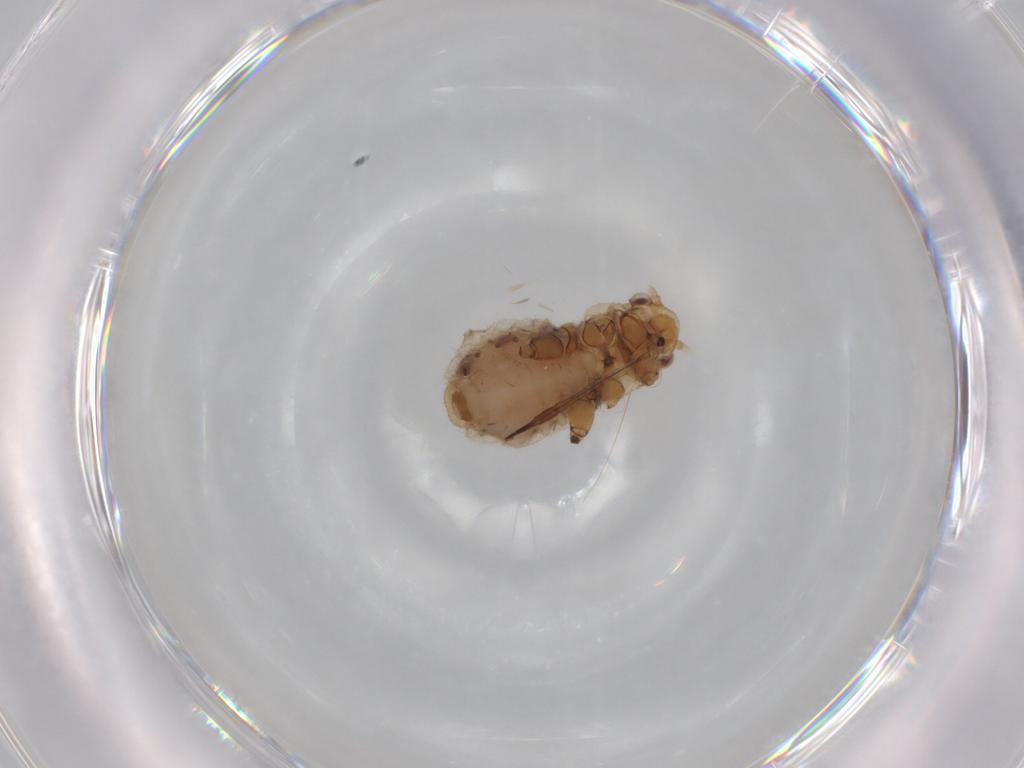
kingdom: Animalia
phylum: Arthropoda
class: Insecta
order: Hemiptera
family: Aphididae
